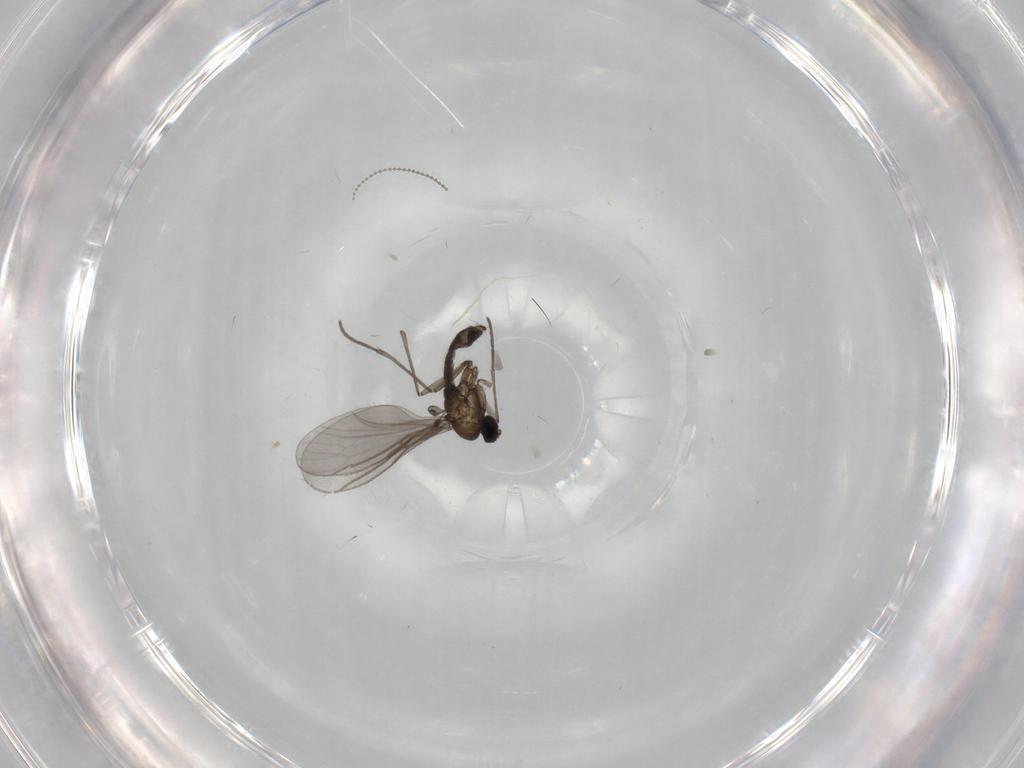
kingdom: Animalia
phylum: Arthropoda
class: Insecta
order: Diptera
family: Sciaridae
